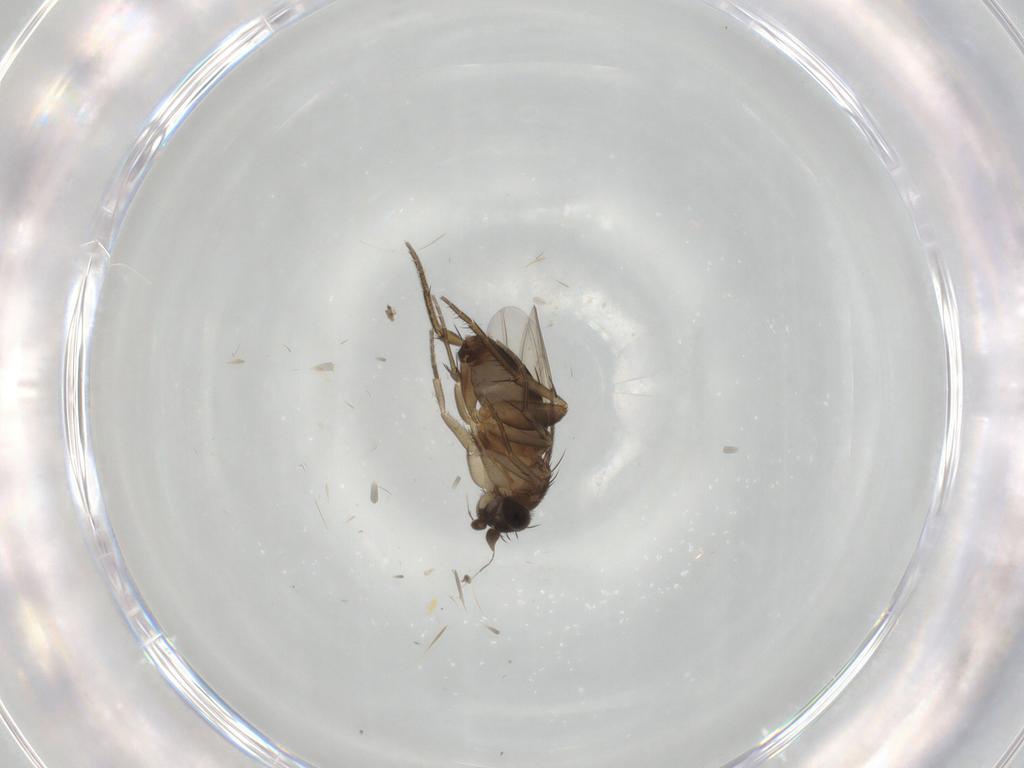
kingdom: Animalia
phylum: Arthropoda
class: Insecta
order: Diptera
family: Phoridae
